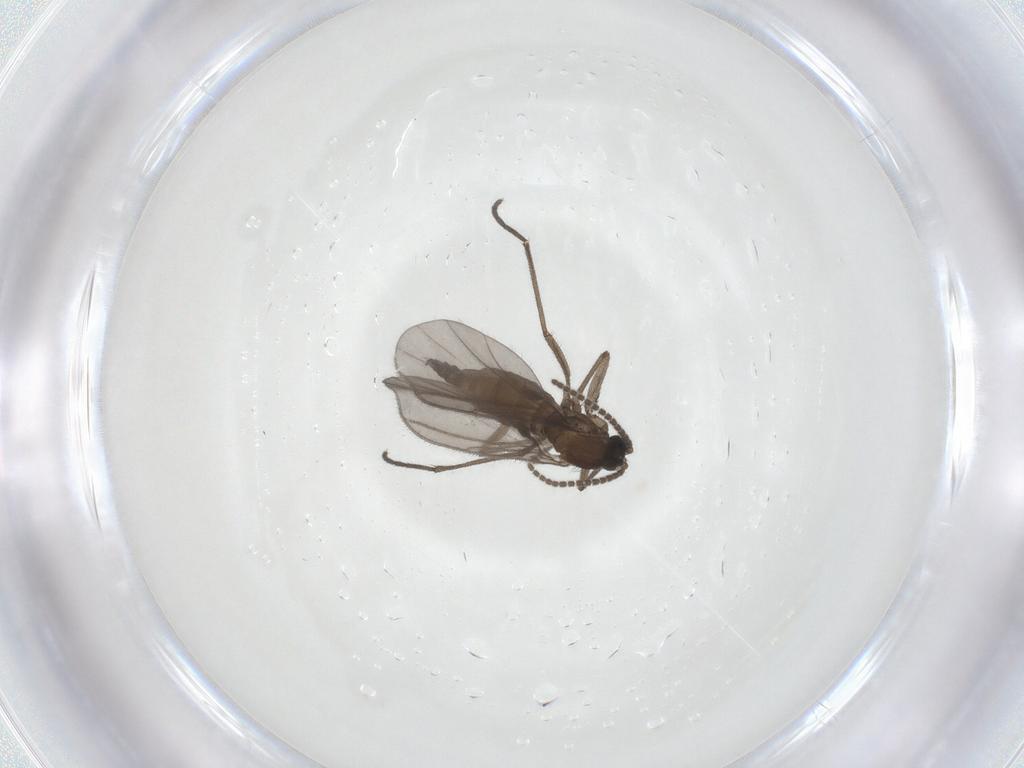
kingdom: Animalia
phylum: Arthropoda
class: Insecta
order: Diptera
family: Sciaridae
